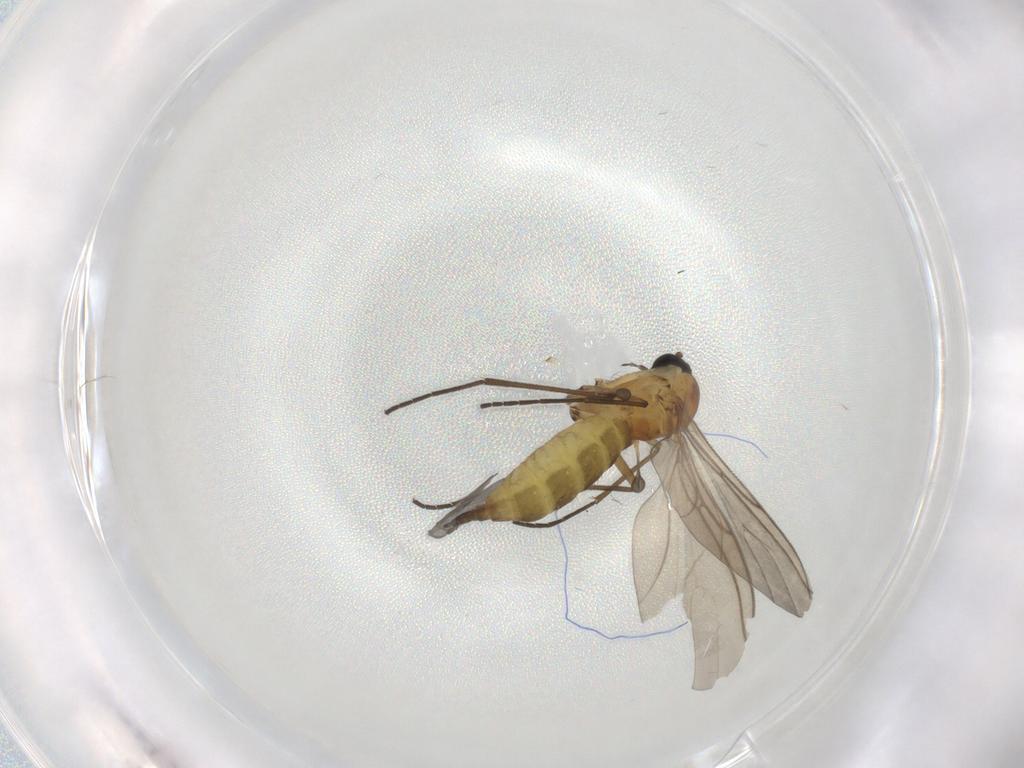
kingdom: Animalia
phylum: Arthropoda
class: Insecta
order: Diptera
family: Sciaridae
